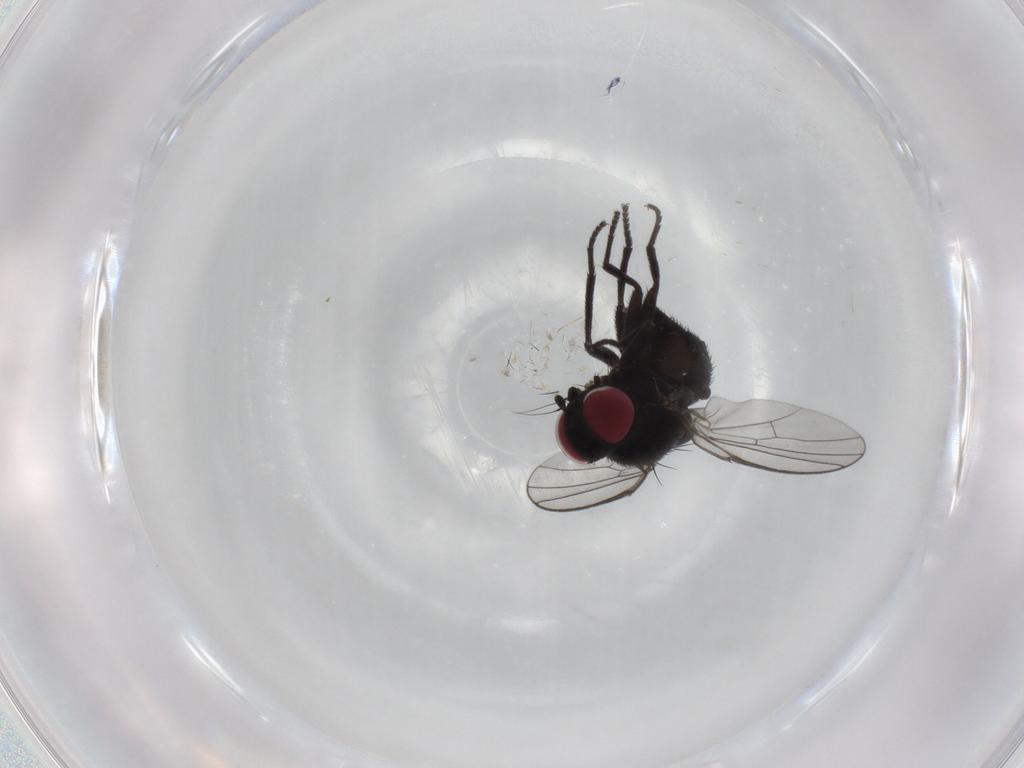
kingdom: Animalia
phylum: Arthropoda
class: Insecta
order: Diptera
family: Agromyzidae
